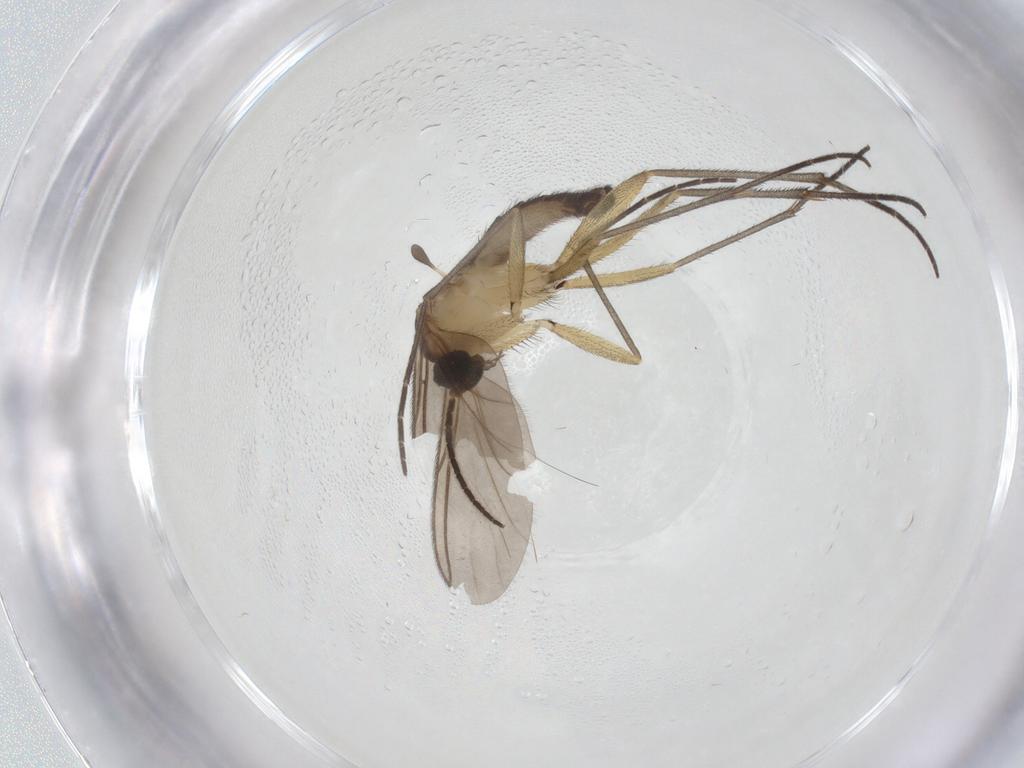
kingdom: Animalia
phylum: Arthropoda
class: Insecta
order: Diptera
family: Sciaridae
